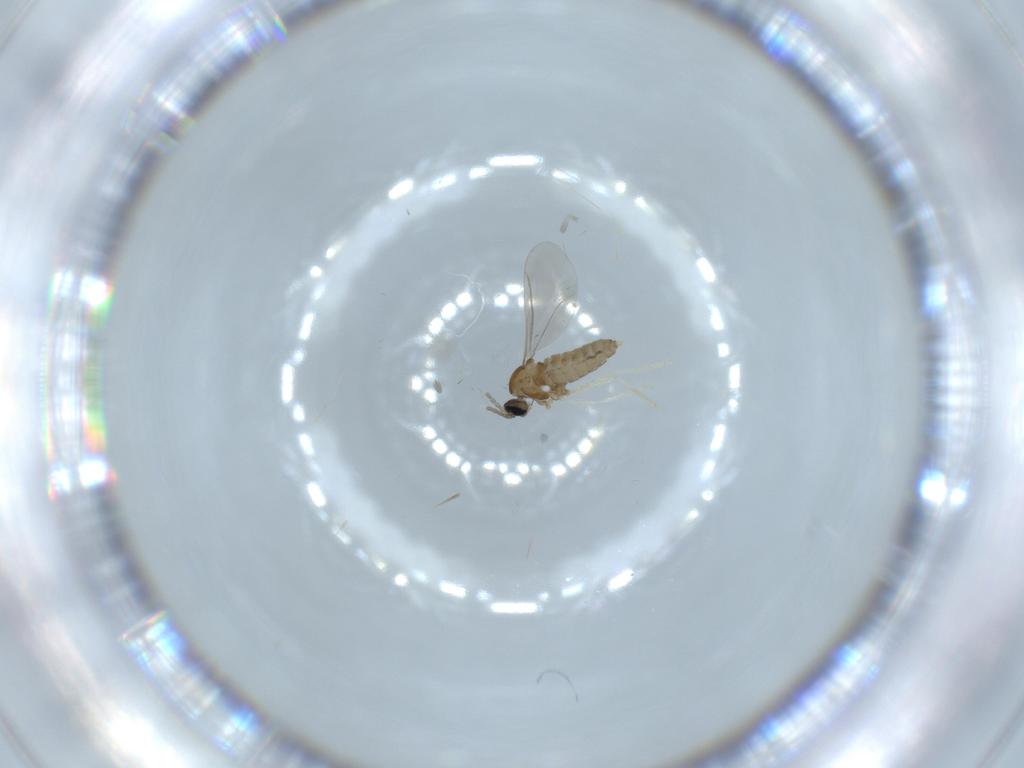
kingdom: Animalia
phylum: Arthropoda
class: Insecta
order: Diptera
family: Cecidomyiidae
